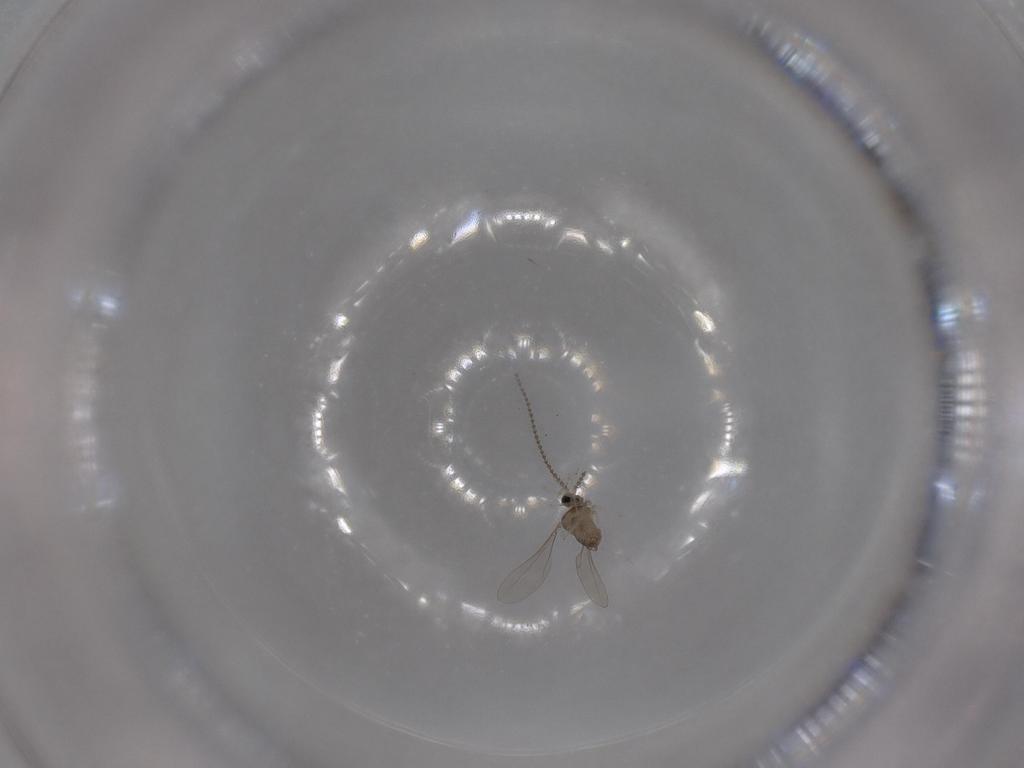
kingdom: Animalia
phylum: Arthropoda
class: Insecta
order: Diptera
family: Cecidomyiidae
